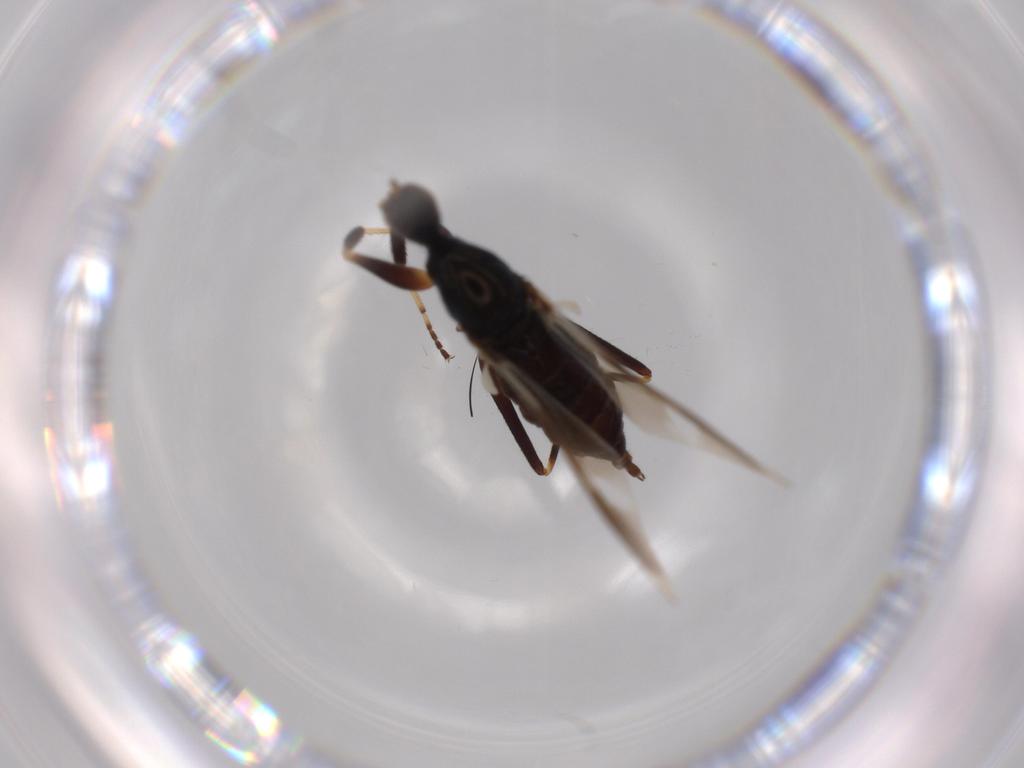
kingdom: Animalia
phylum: Arthropoda
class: Insecta
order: Diptera
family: Hybotidae
